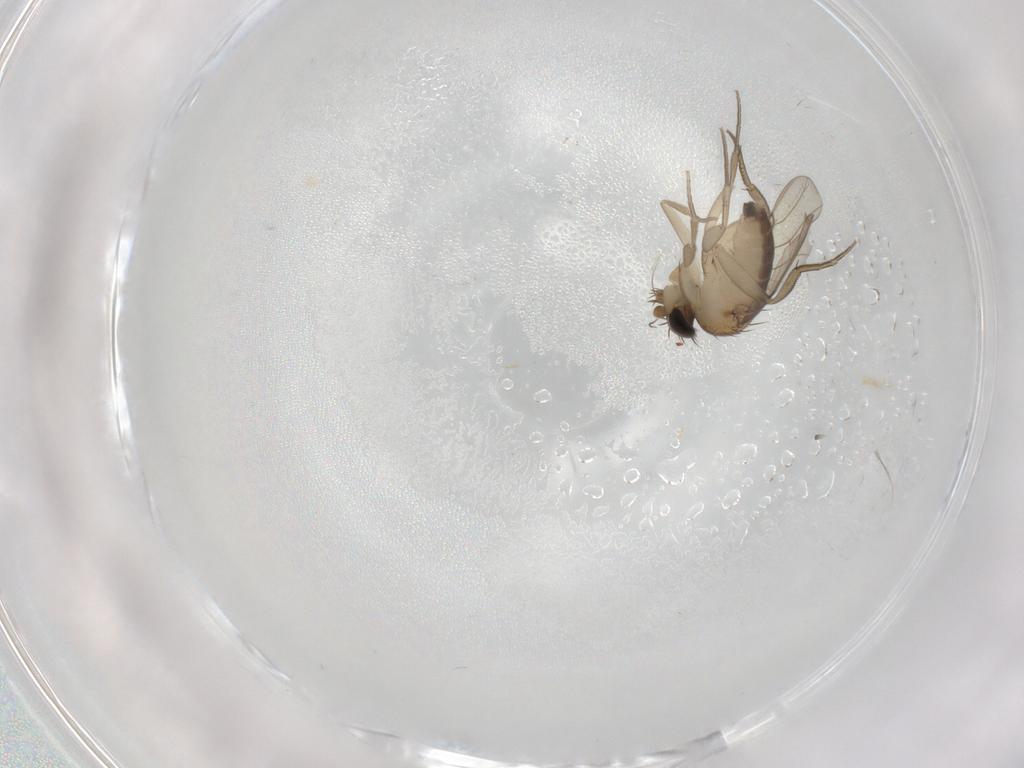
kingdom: Animalia
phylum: Arthropoda
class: Insecta
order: Diptera
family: Phoridae
